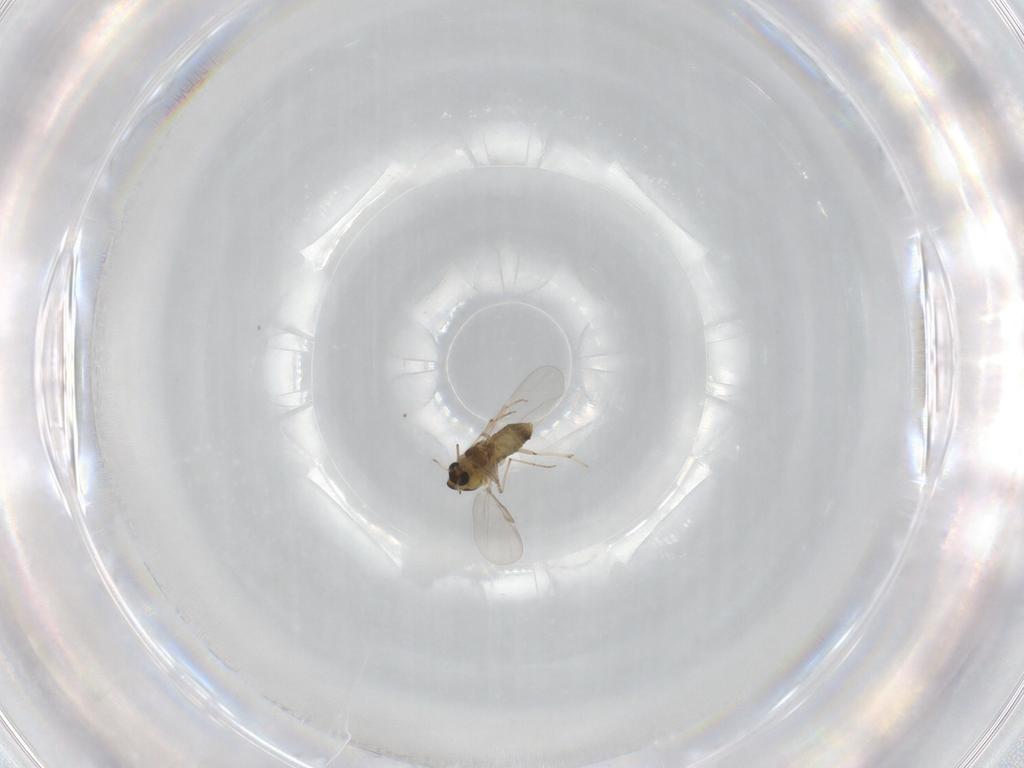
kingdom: Animalia
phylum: Arthropoda
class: Insecta
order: Diptera
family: Chironomidae
